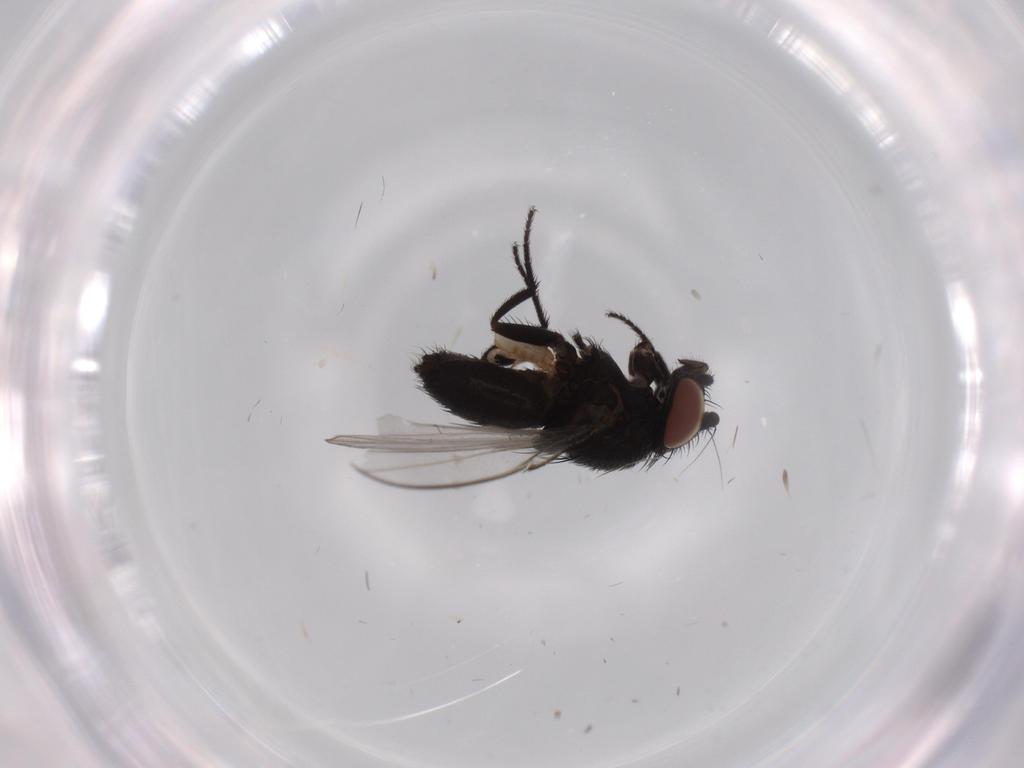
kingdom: Animalia
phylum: Arthropoda
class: Insecta
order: Diptera
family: Milichiidae
